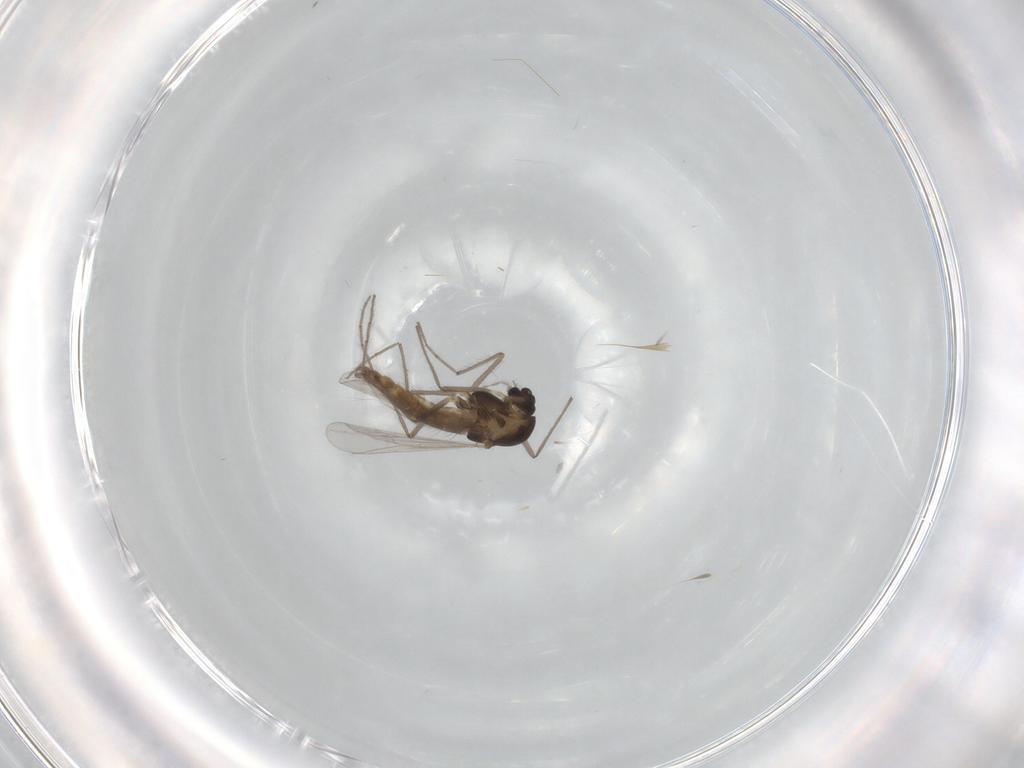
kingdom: Animalia
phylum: Arthropoda
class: Insecta
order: Diptera
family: Chironomidae
